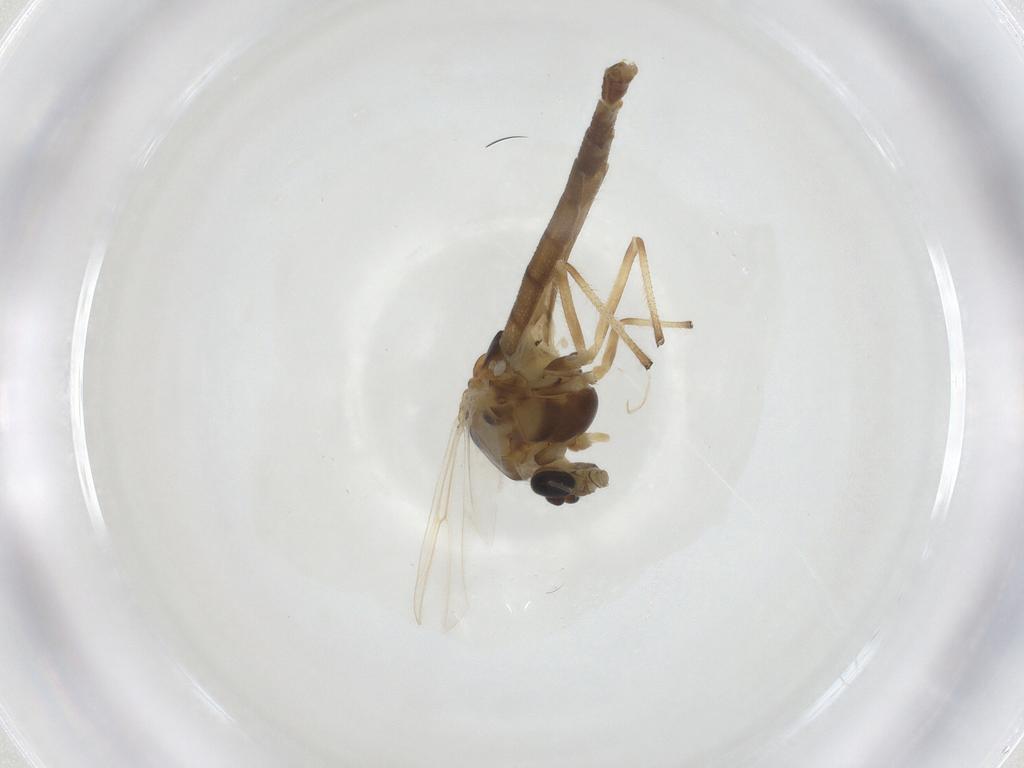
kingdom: Animalia
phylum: Arthropoda
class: Insecta
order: Diptera
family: Chironomidae
